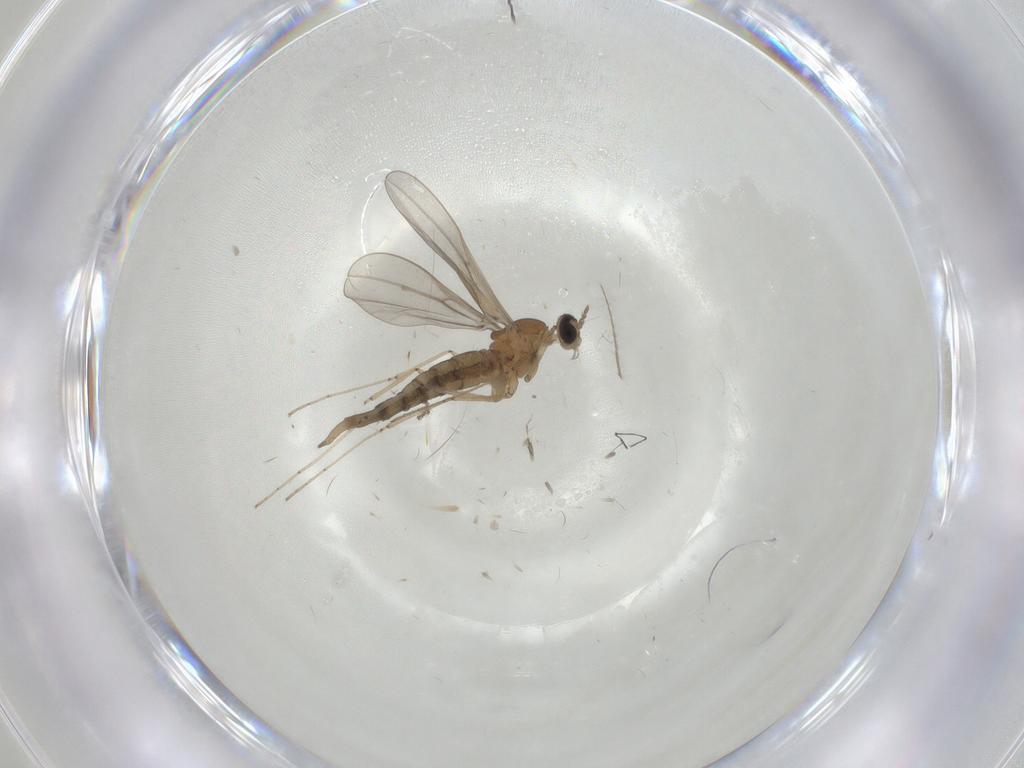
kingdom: Animalia
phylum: Arthropoda
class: Insecta
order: Diptera
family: Cecidomyiidae
